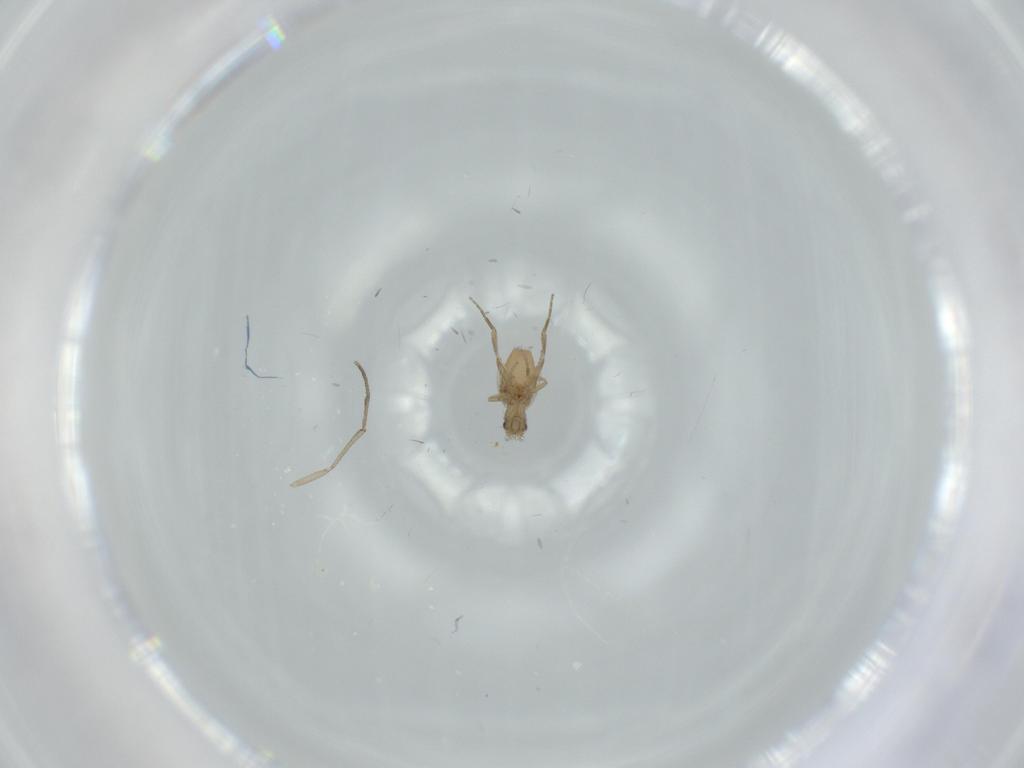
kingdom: Animalia
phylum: Arthropoda
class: Insecta
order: Diptera
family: Phoridae
